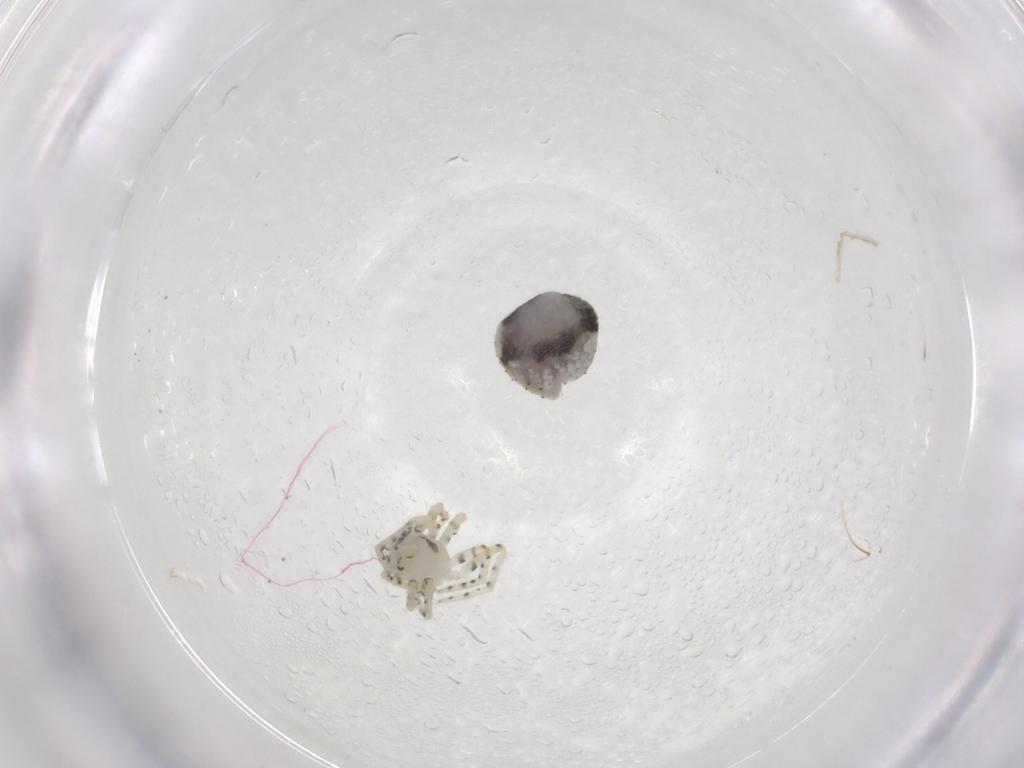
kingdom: Animalia
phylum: Arthropoda
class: Arachnida
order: Araneae
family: Theridiidae
